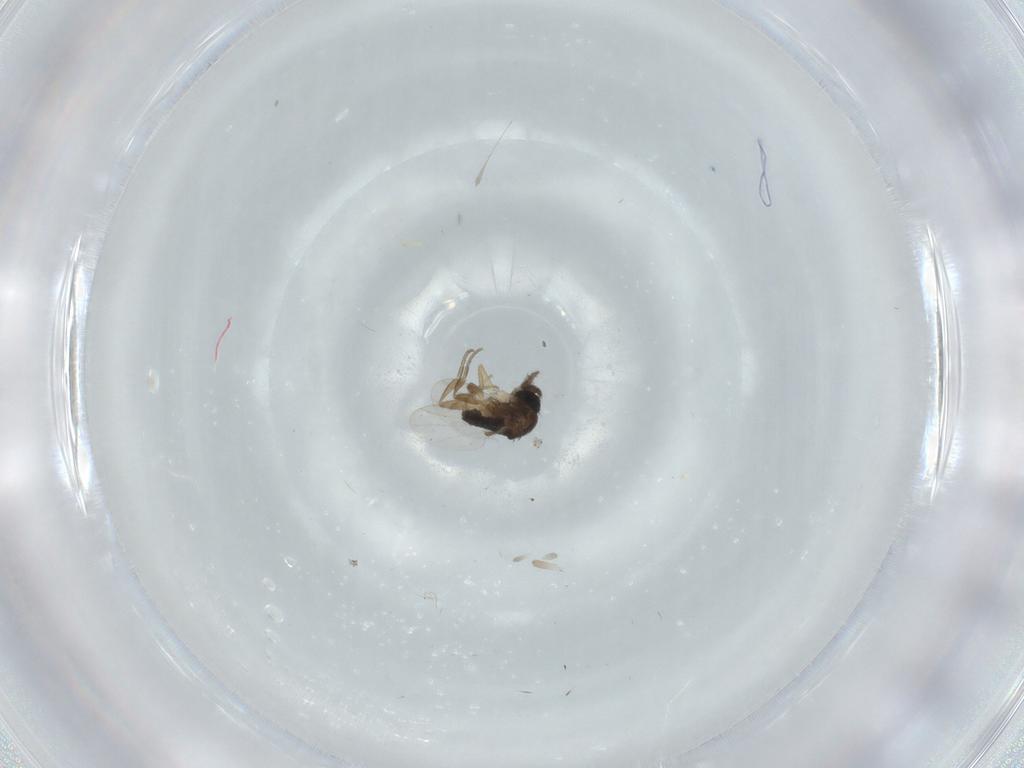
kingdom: Animalia
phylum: Arthropoda
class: Insecta
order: Diptera
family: Phoridae
